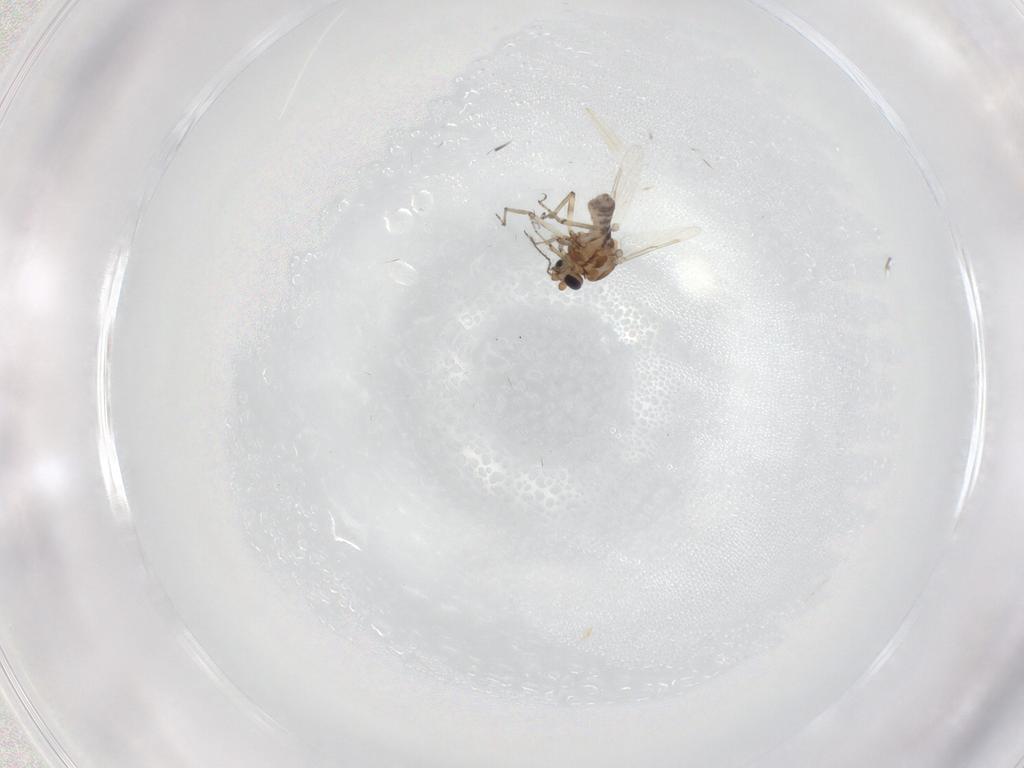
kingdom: Animalia
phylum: Arthropoda
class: Insecta
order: Diptera
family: Ceratopogonidae
